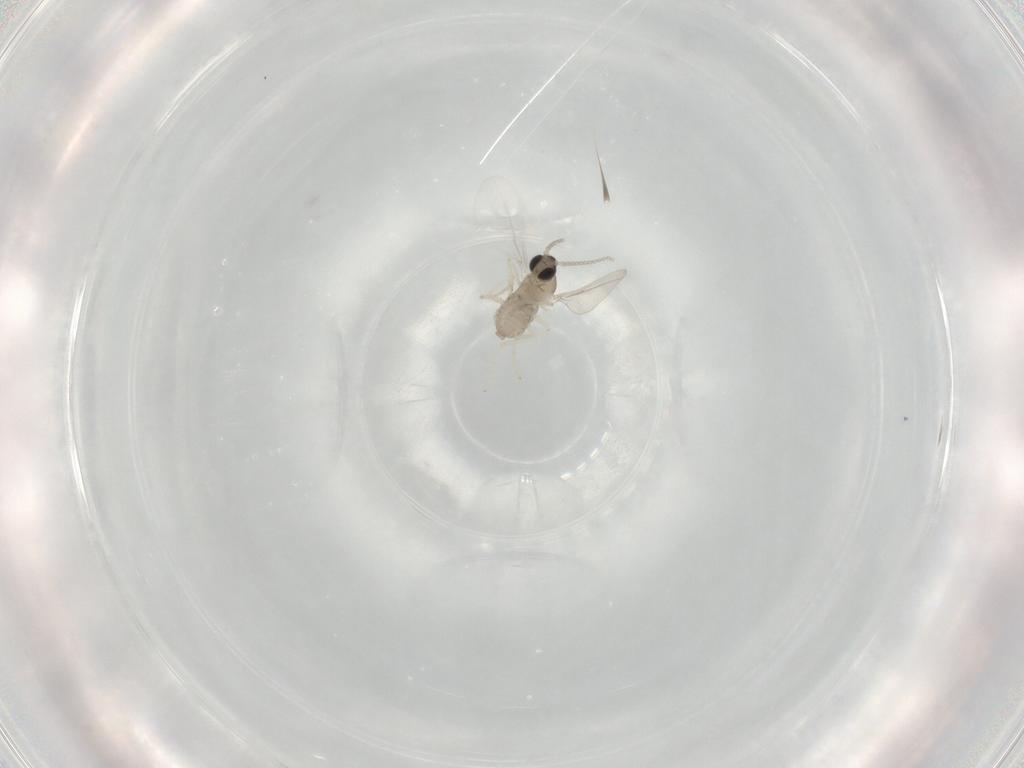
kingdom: Animalia
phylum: Arthropoda
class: Insecta
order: Diptera
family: Cecidomyiidae
